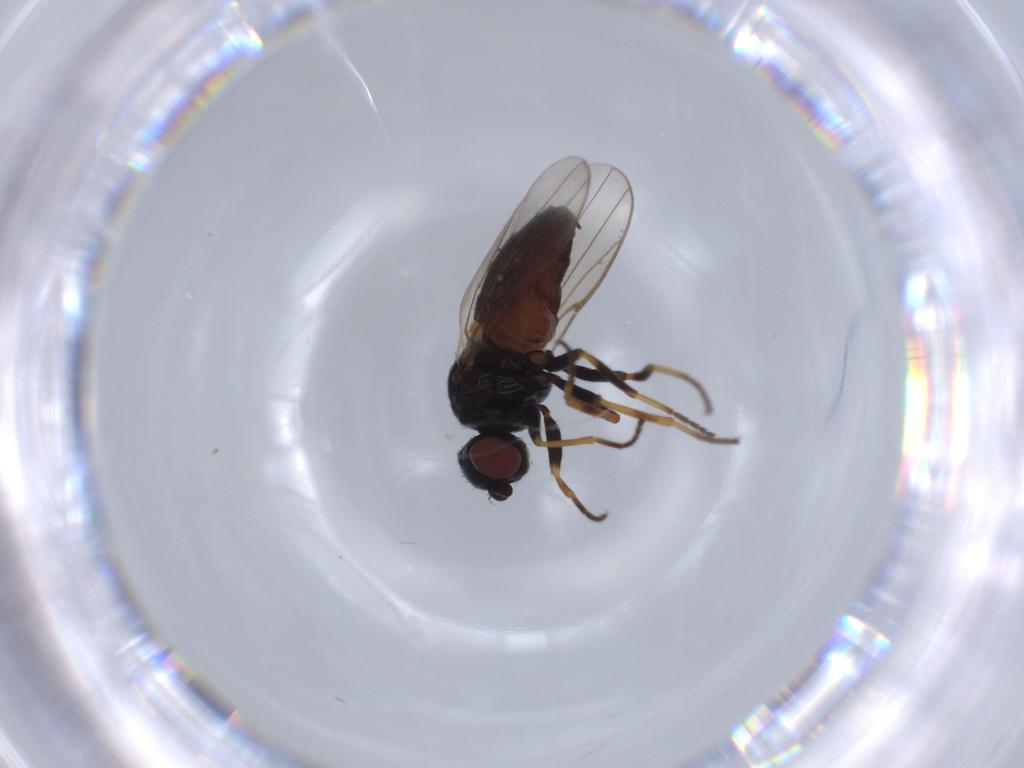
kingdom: Animalia
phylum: Arthropoda
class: Insecta
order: Diptera
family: Chloropidae
